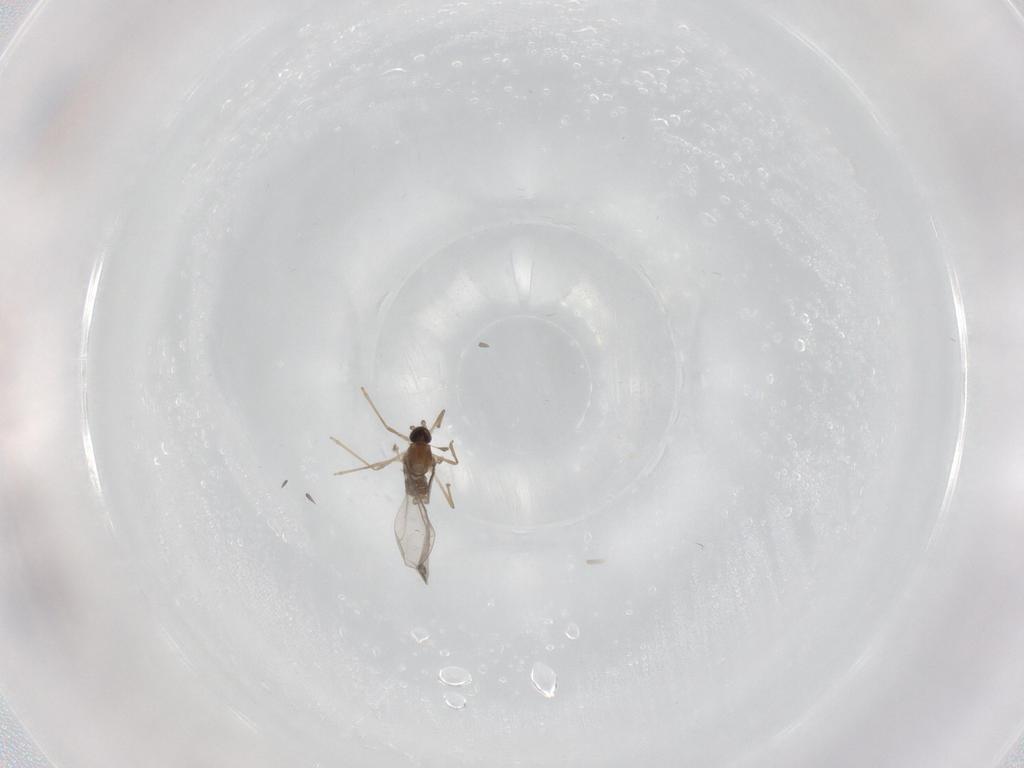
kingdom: Animalia
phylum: Arthropoda
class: Insecta
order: Diptera
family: Cecidomyiidae
